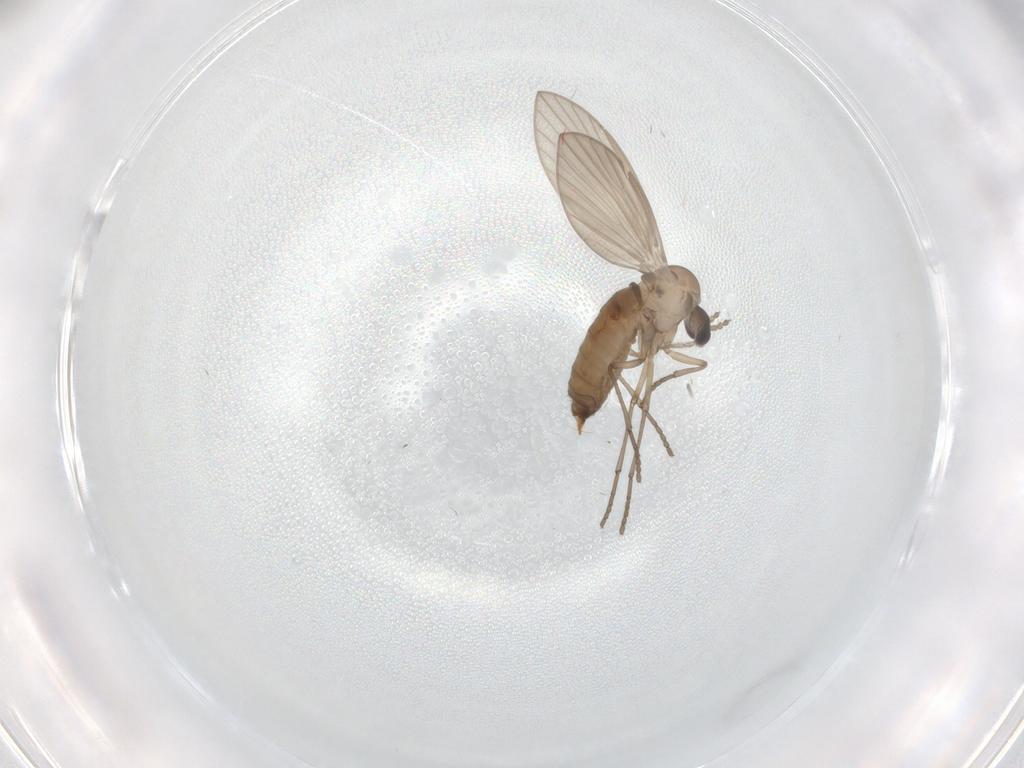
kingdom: Animalia
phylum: Arthropoda
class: Insecta
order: Diptera
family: Psychodidae
